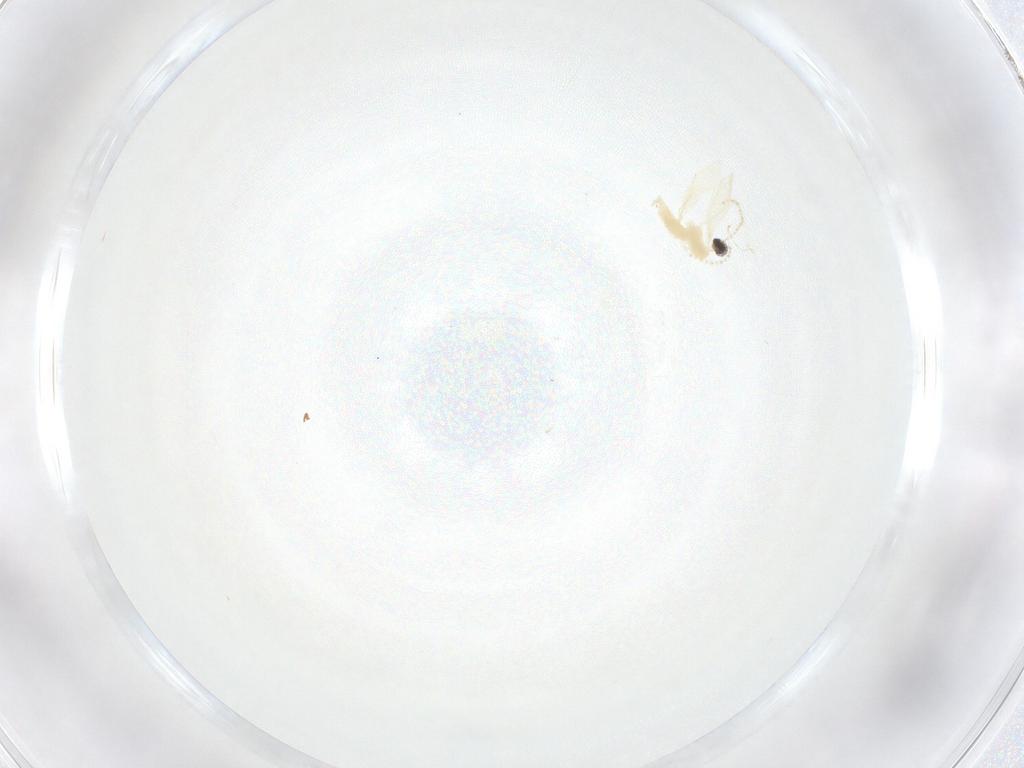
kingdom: Animalia
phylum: Arthropoda
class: Insecta
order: Diptera
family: Cecidomyiidae
